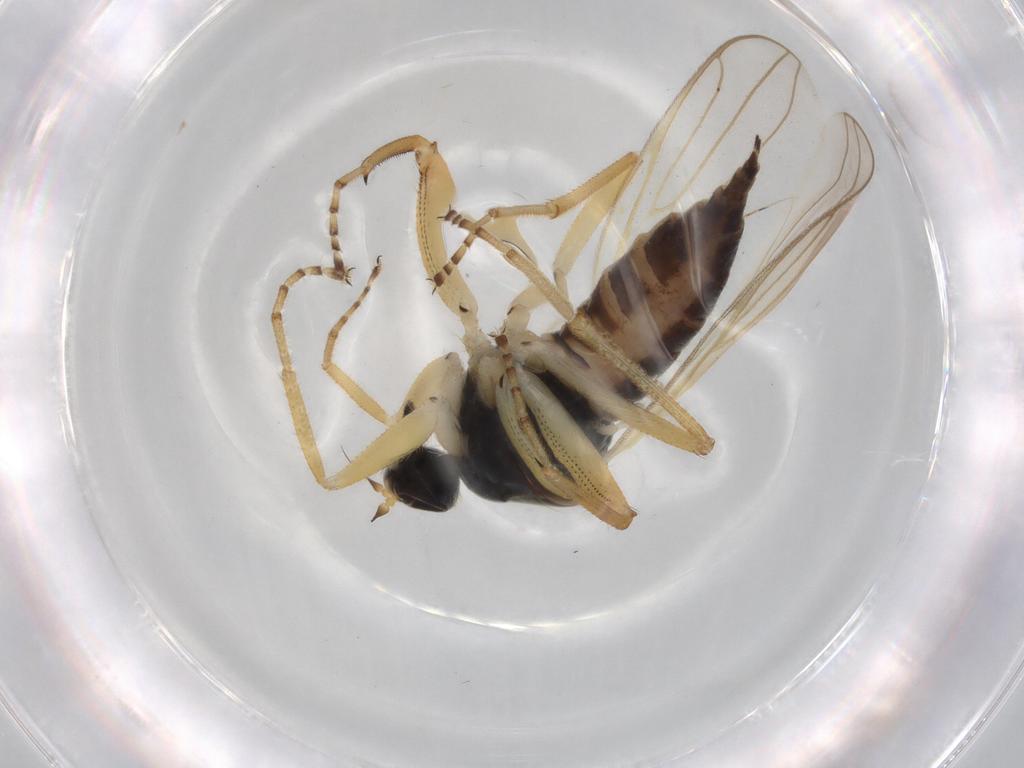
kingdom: Animalia
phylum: Arthropoda
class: Insecta
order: Diptera
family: Hybotidae
